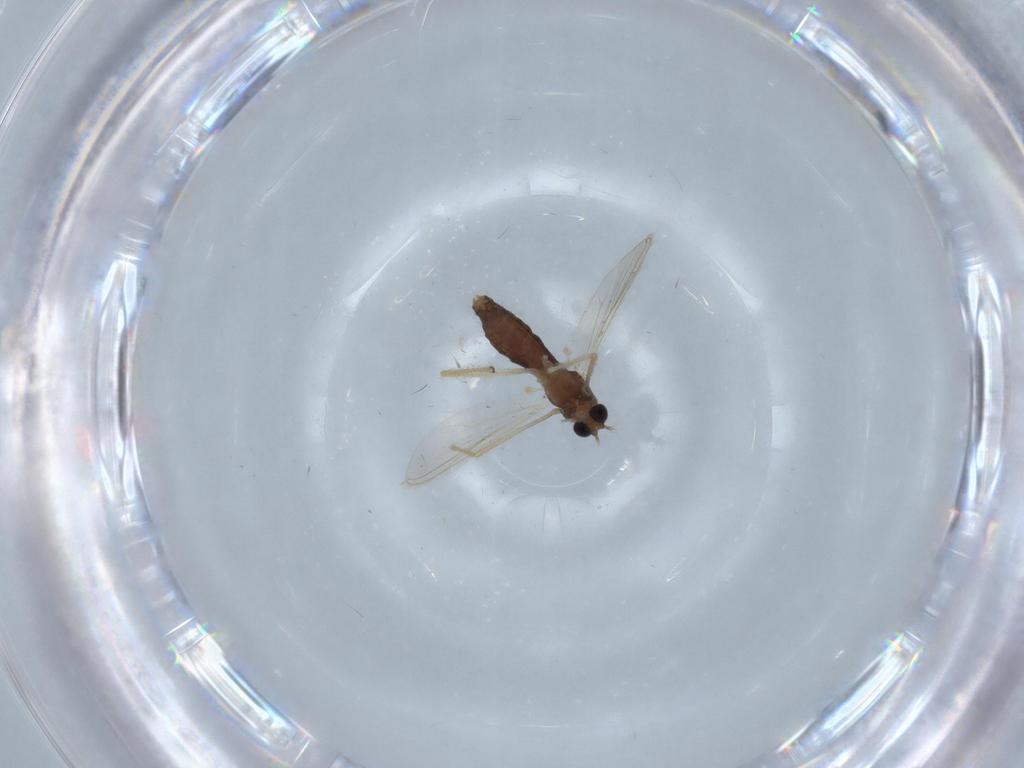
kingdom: Animalia
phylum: Arthropoda
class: Insecta
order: Diptera
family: Chironomidae
